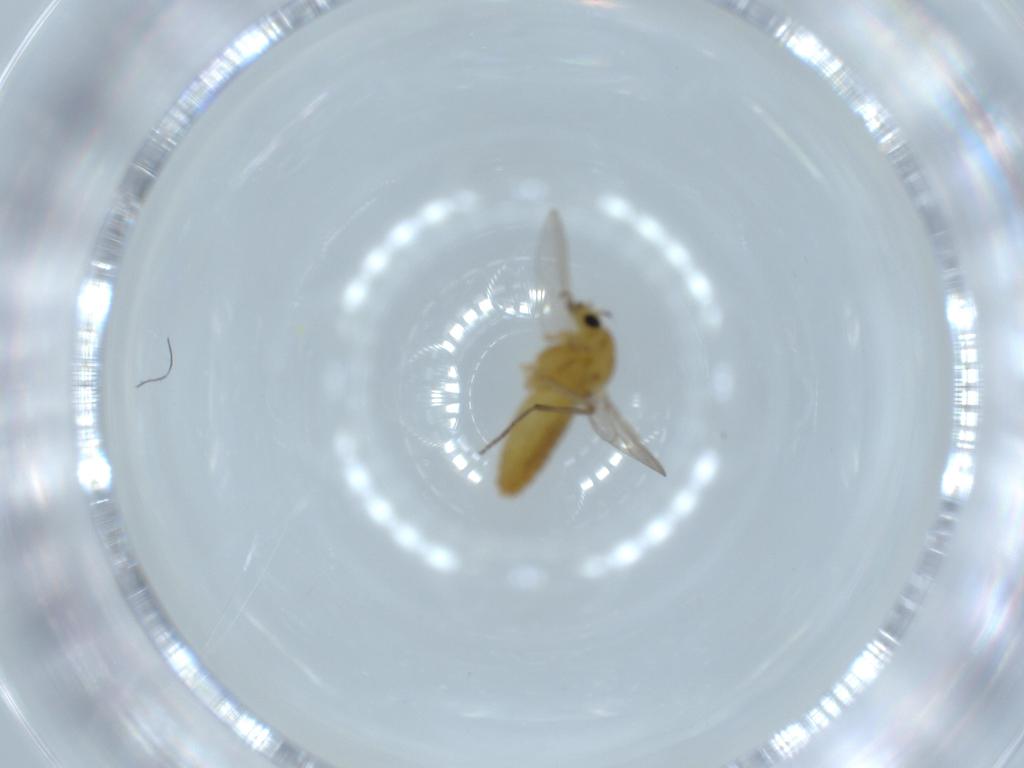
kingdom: Animalia
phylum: Arthropoda
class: Insecta
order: Diptera
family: Chironomidae
